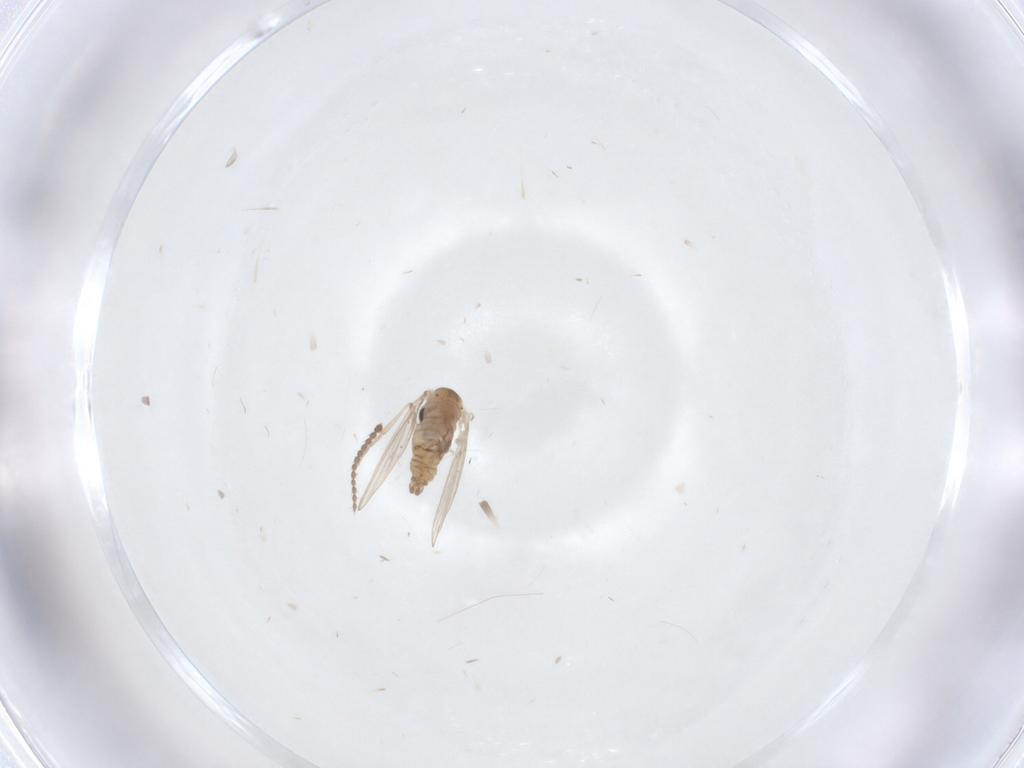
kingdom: Animalia
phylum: Arthropoda
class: Insecta
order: Diptera
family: Psychodidae
